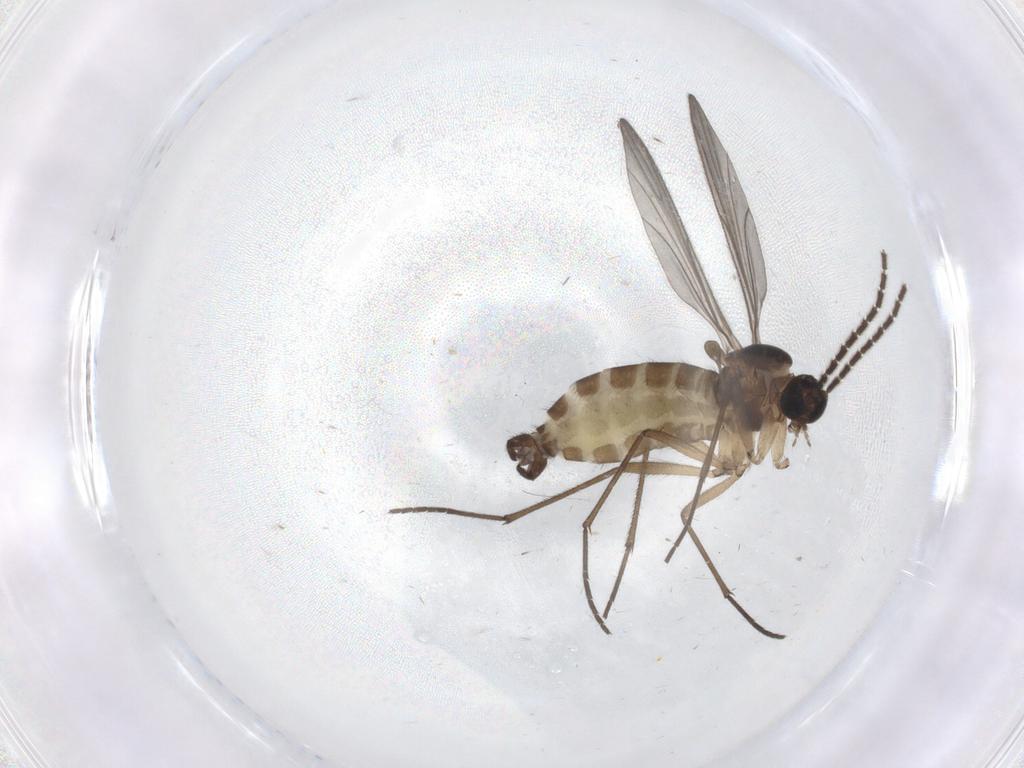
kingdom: Animalia
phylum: Arthropoda
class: Insecta
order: Diptera
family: Sciaridae
